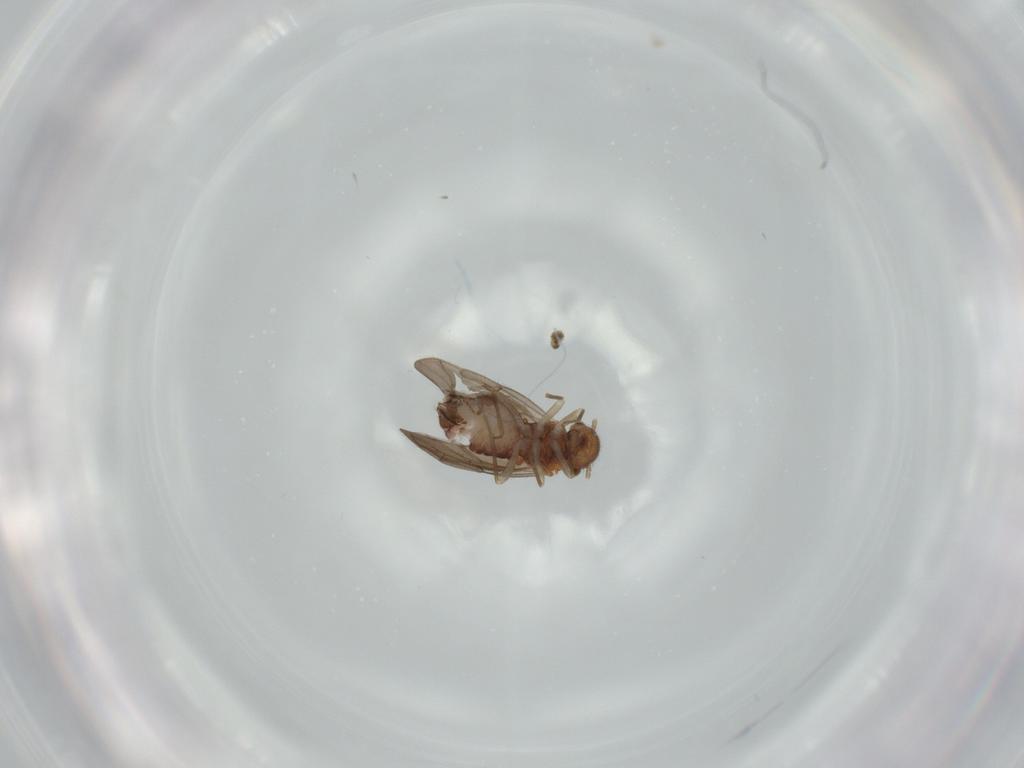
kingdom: Animalia
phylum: Arthropoda
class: Insecta
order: Psocodea
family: Ectopsocidae
